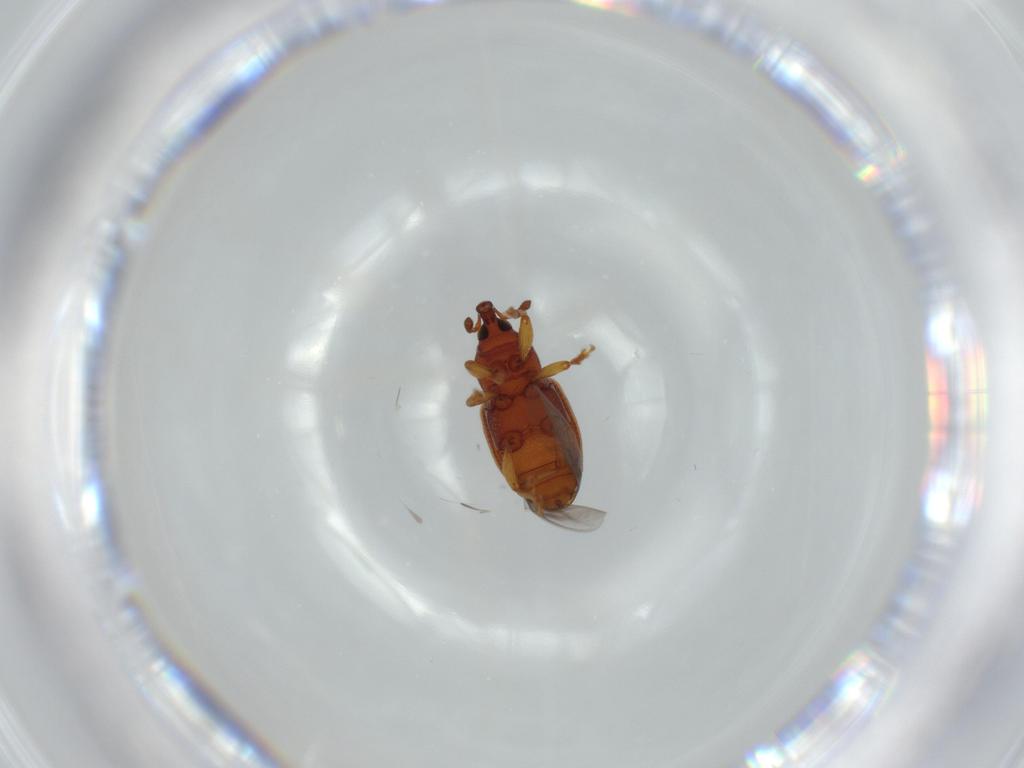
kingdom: Animalia
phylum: Arthropoda
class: Insecta
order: Coleoptera
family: Curculionidae
